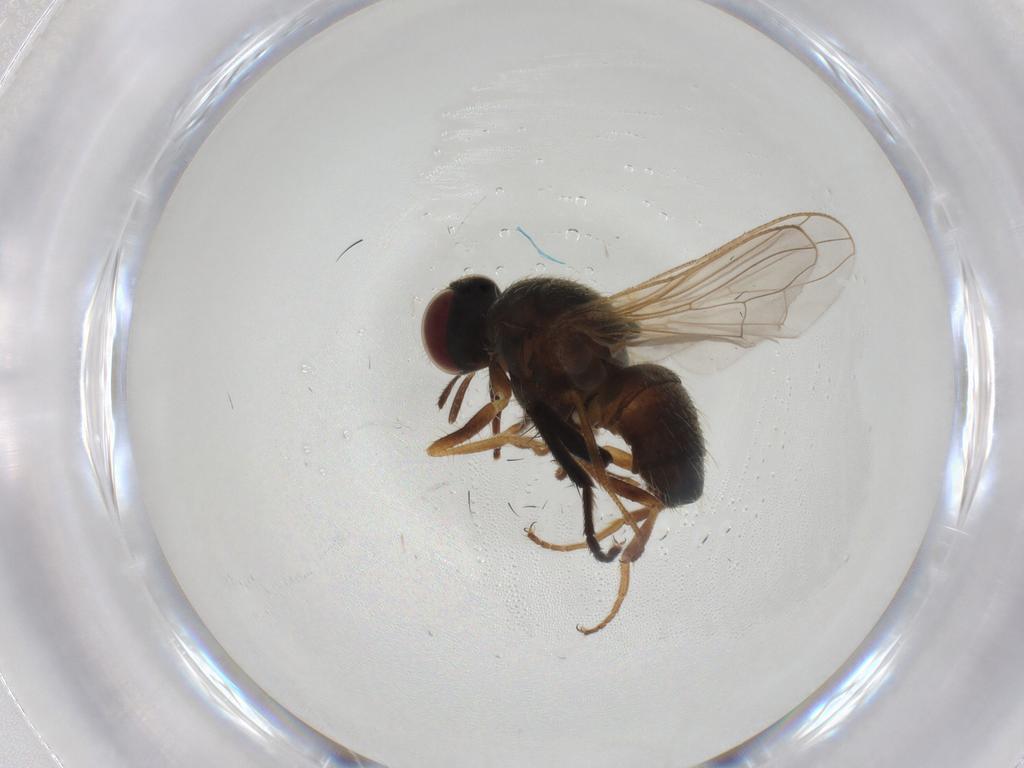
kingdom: Animalia
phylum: Arthropoda
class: Insecta
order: Diptera
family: Muscidae
